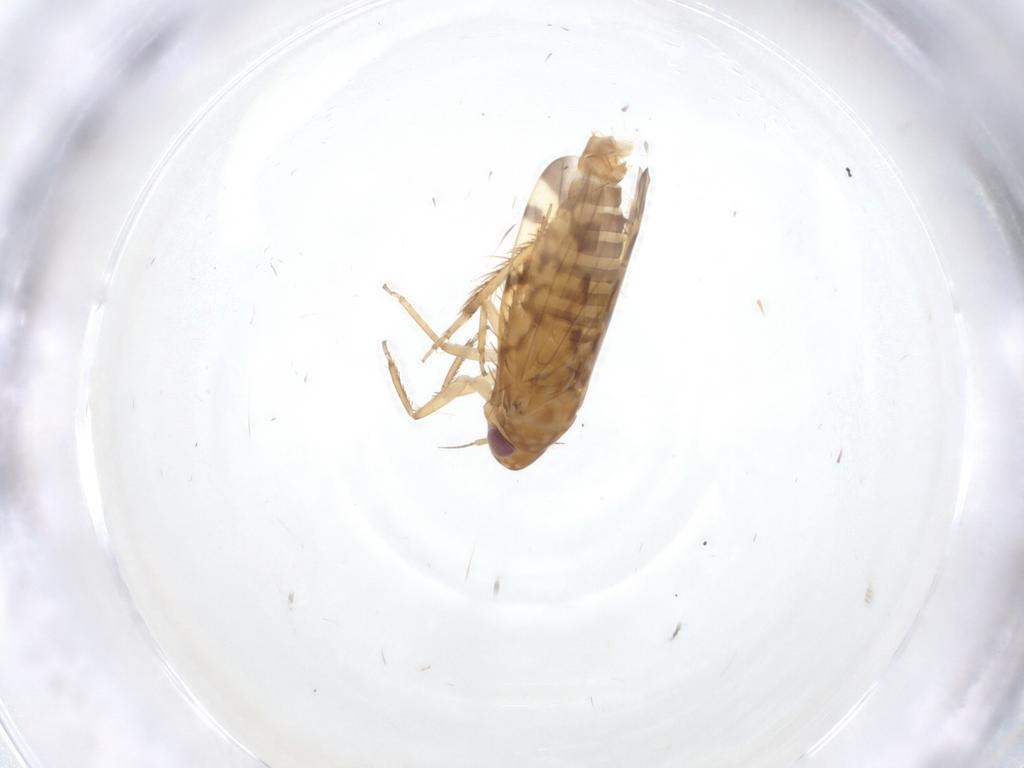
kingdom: Animalia
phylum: Arthropoda
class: Insecta
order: Hemiptera
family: Cicadellidae
